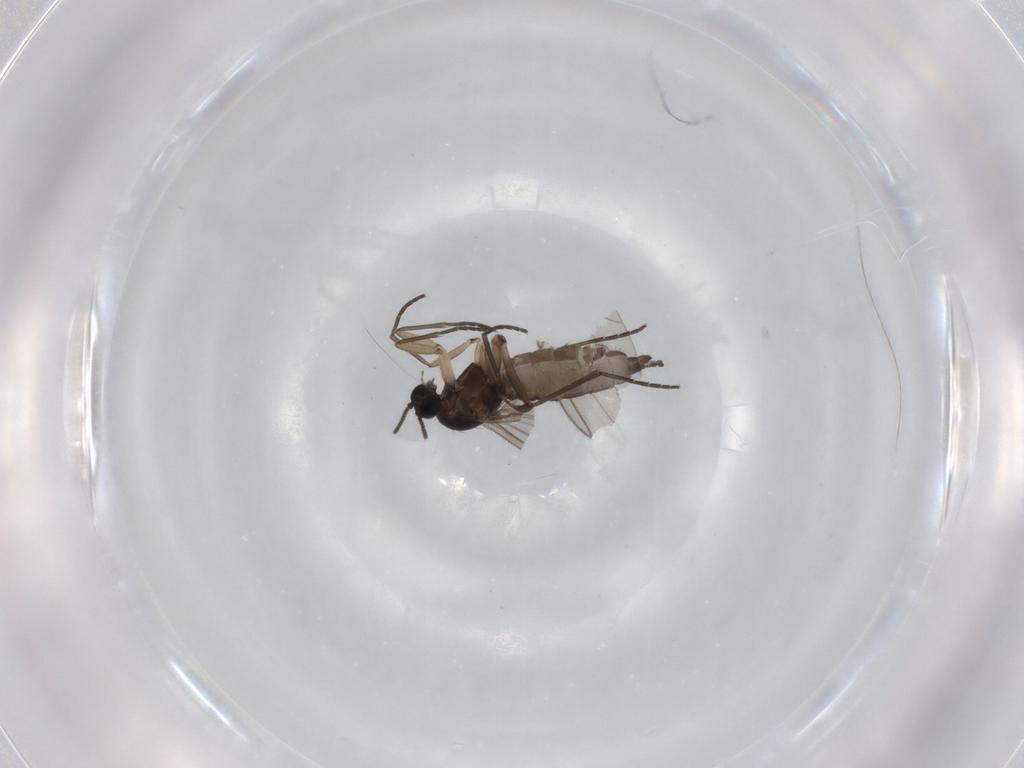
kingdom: Animalia
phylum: Arthropoda
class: Insecta
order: Diptera
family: Sciaridae
